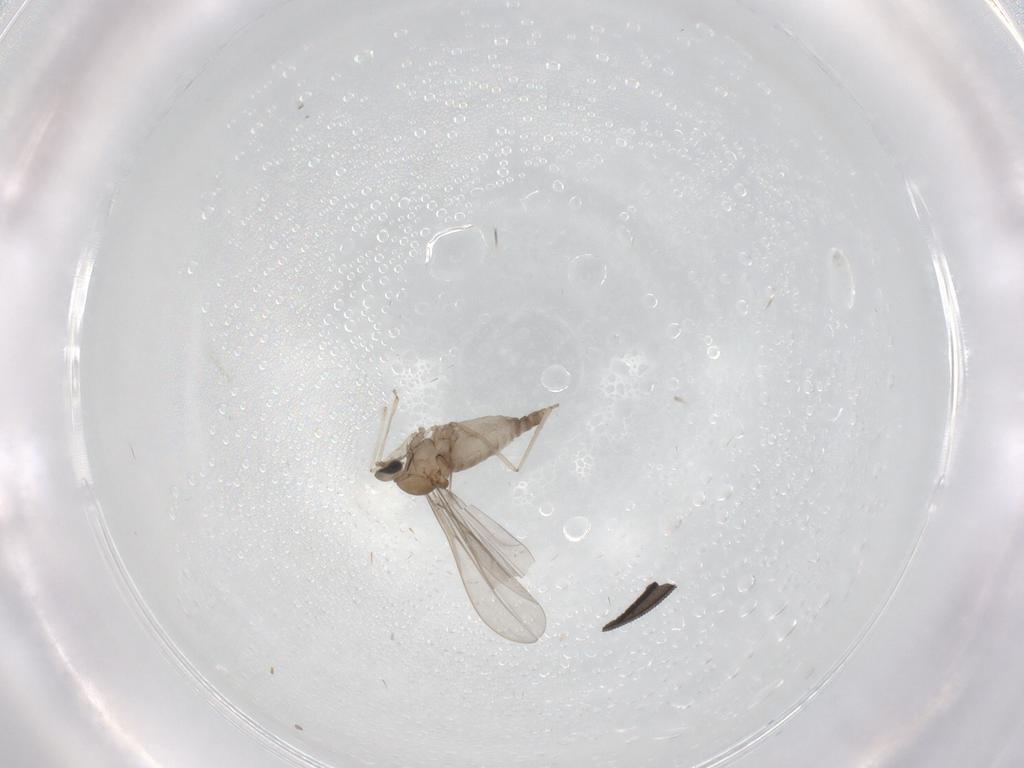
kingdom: Animalia
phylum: Arthropoda
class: Insecta
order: Diptera
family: Cecidomyiidae
